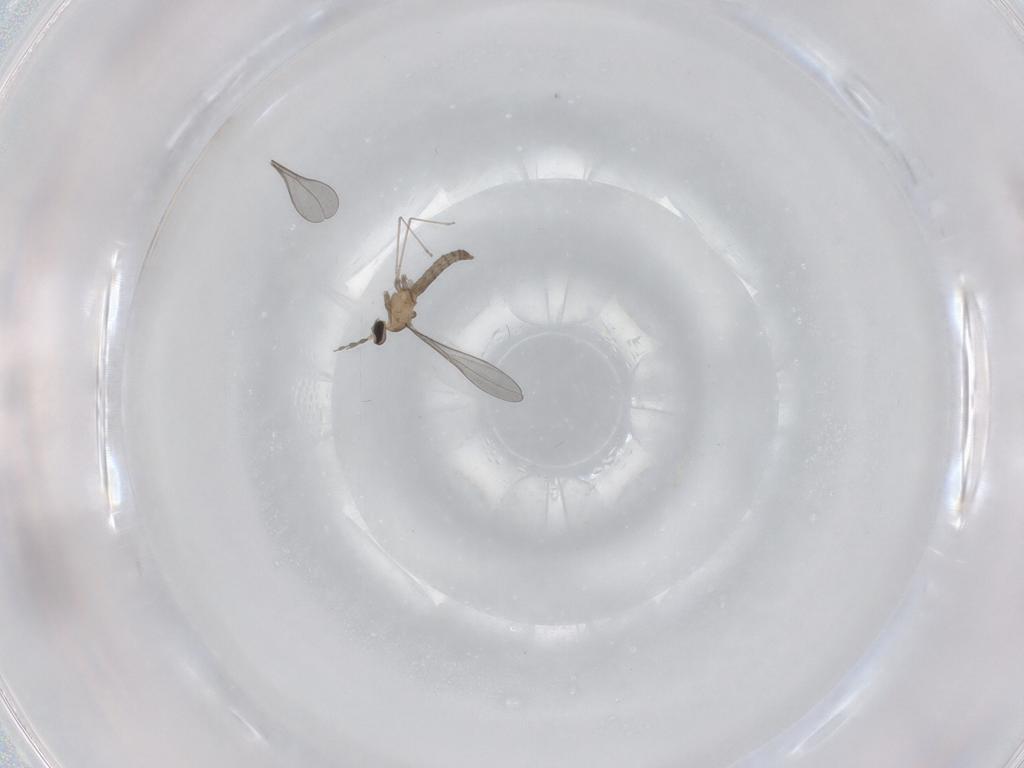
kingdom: Animalia
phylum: Arthropoda
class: Insecta
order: Diptera
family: Cecidomyiidae
